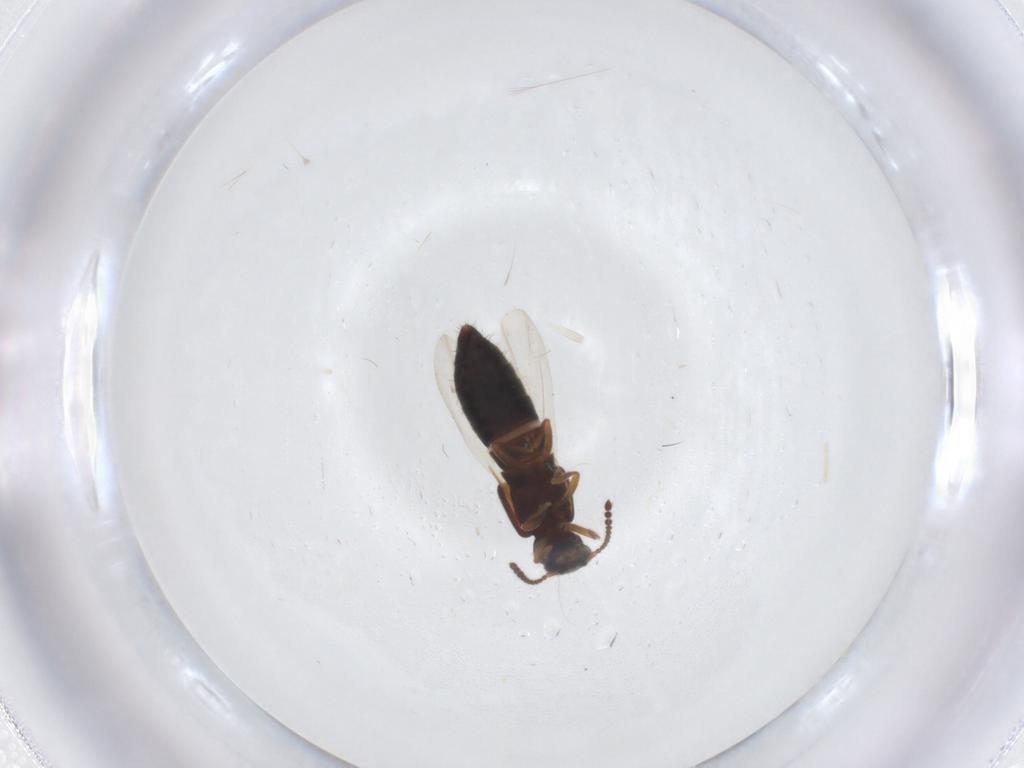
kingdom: Animalia
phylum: Arthropoda
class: Insecta
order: Coleoptera
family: Staphylinidae
